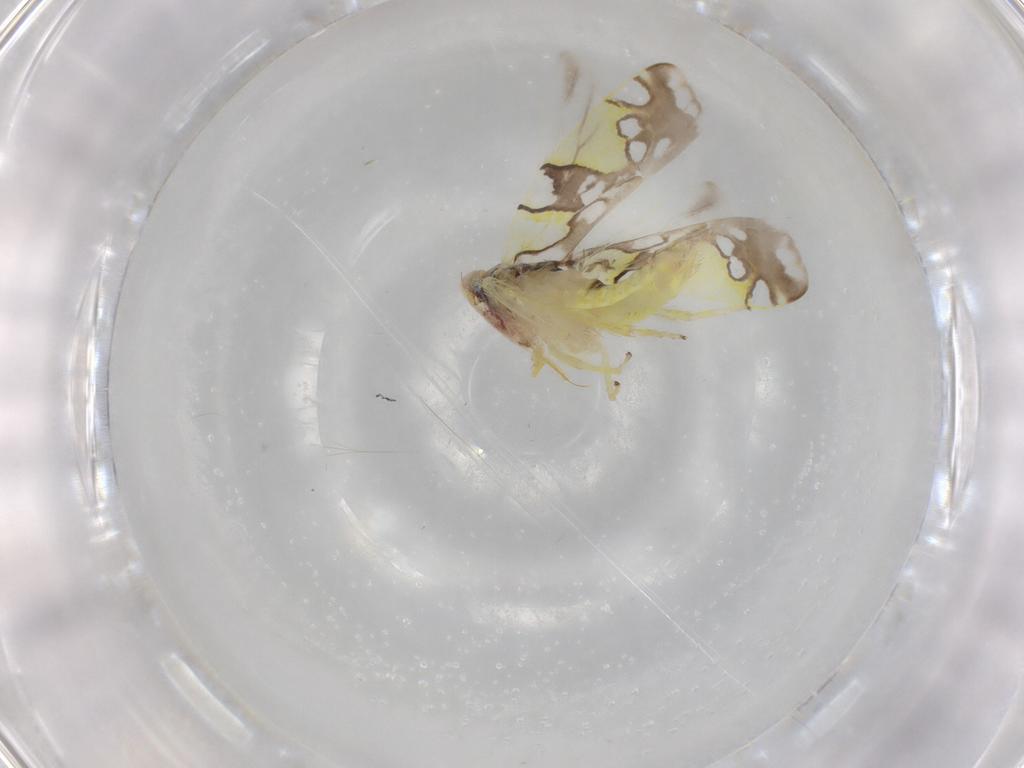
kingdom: Animalia
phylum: Arthropoda
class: Insecta
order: Hemiptera
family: Cicadellidae
